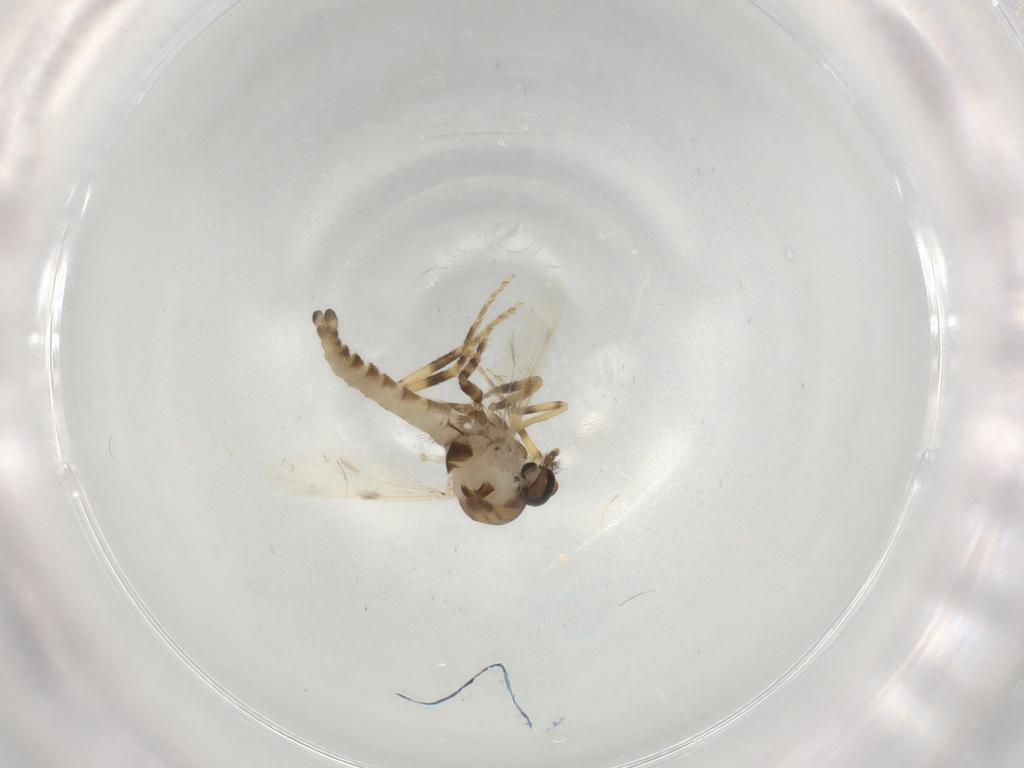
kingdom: Animalia
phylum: Arthropoda
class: Insecta
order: Diptera
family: Ceratopogonidae
